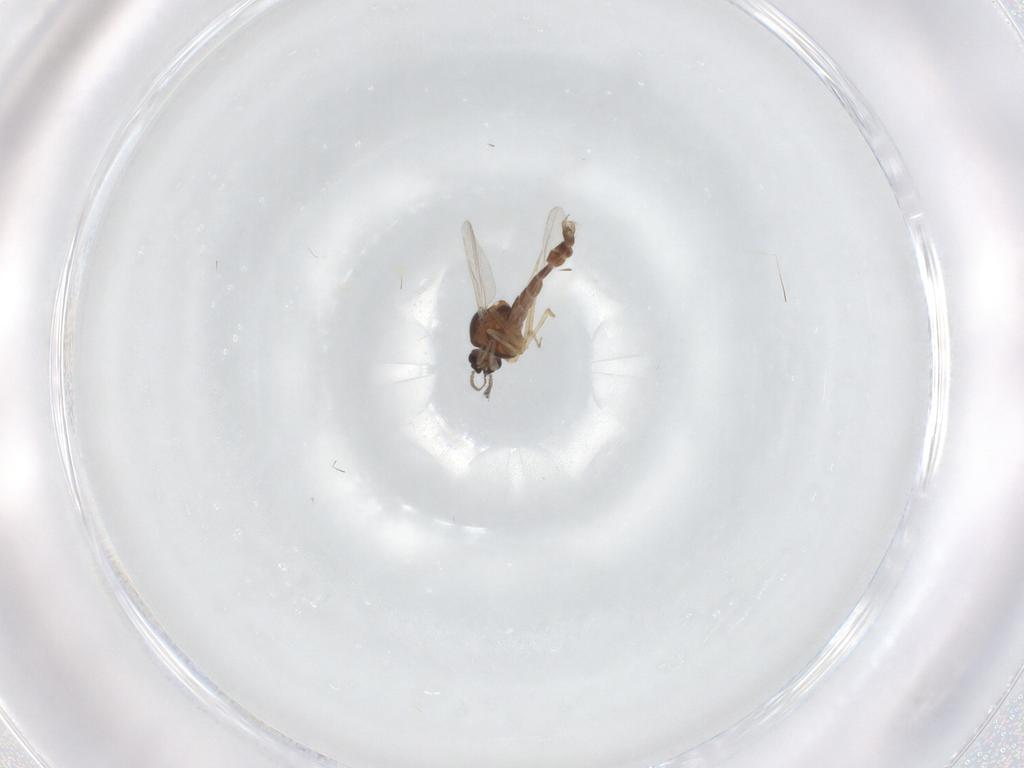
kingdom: Animalia
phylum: Arthropoda
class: Insecta
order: Diptera
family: Ceratopogonidae
